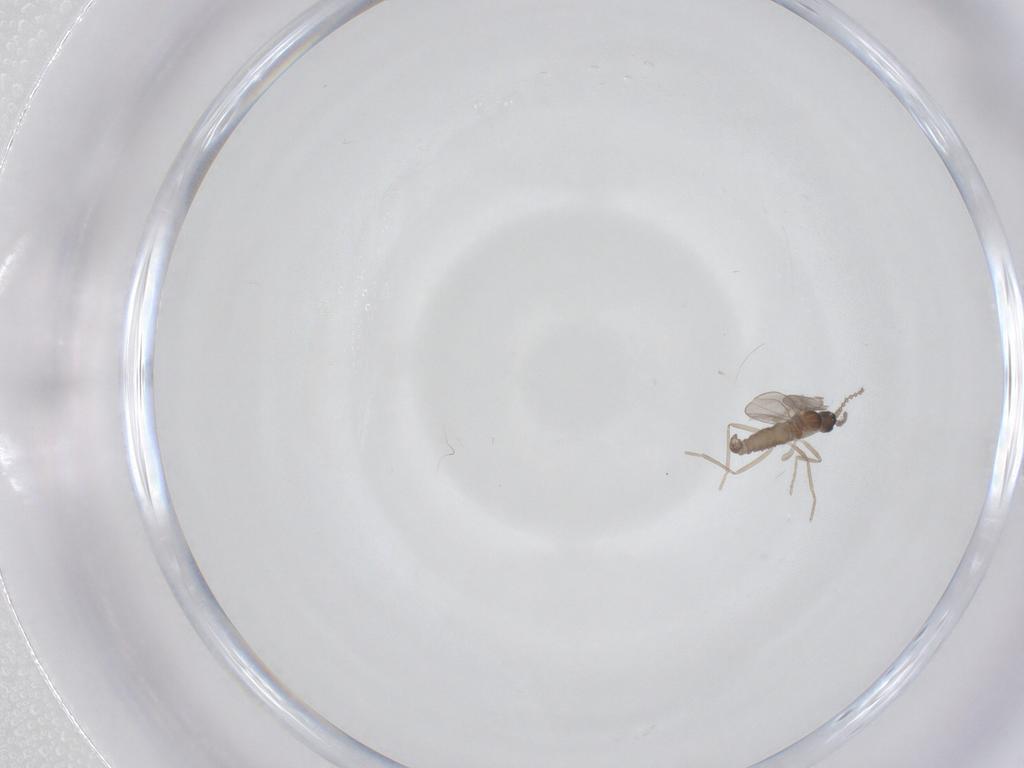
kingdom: Animalia
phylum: Arthropoda
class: Insecta
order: Diptera
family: Cecidomyiidae
